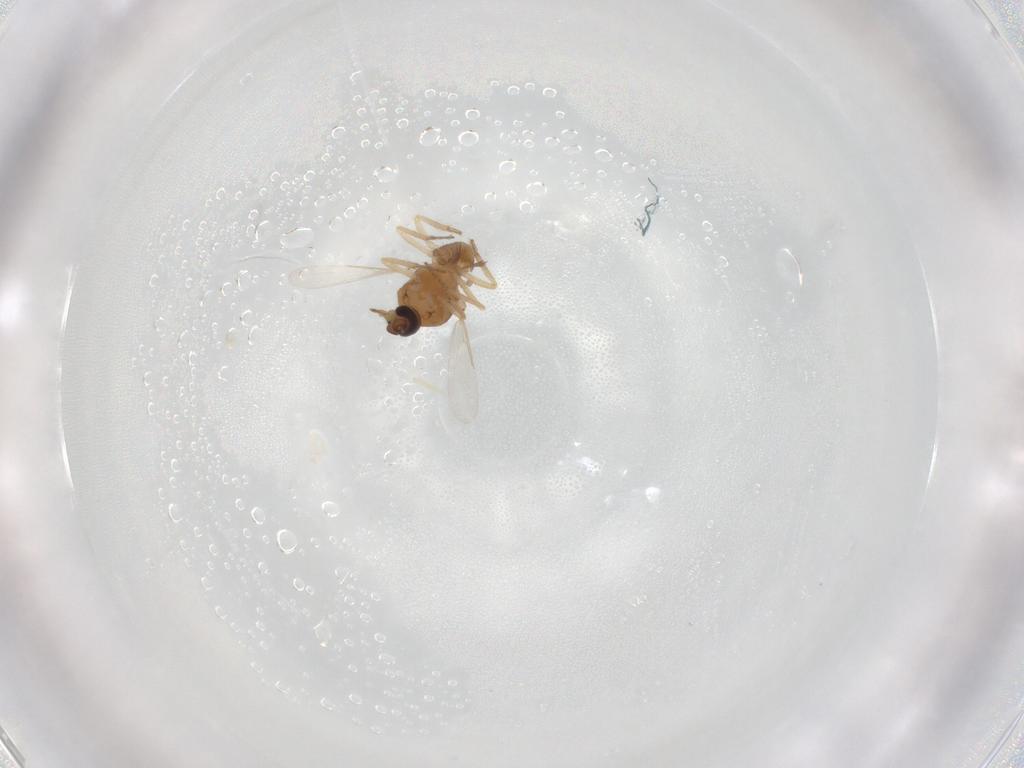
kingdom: Animalia
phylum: Arthropoda
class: Insecta
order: Diptera
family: Ceratopogonidae
